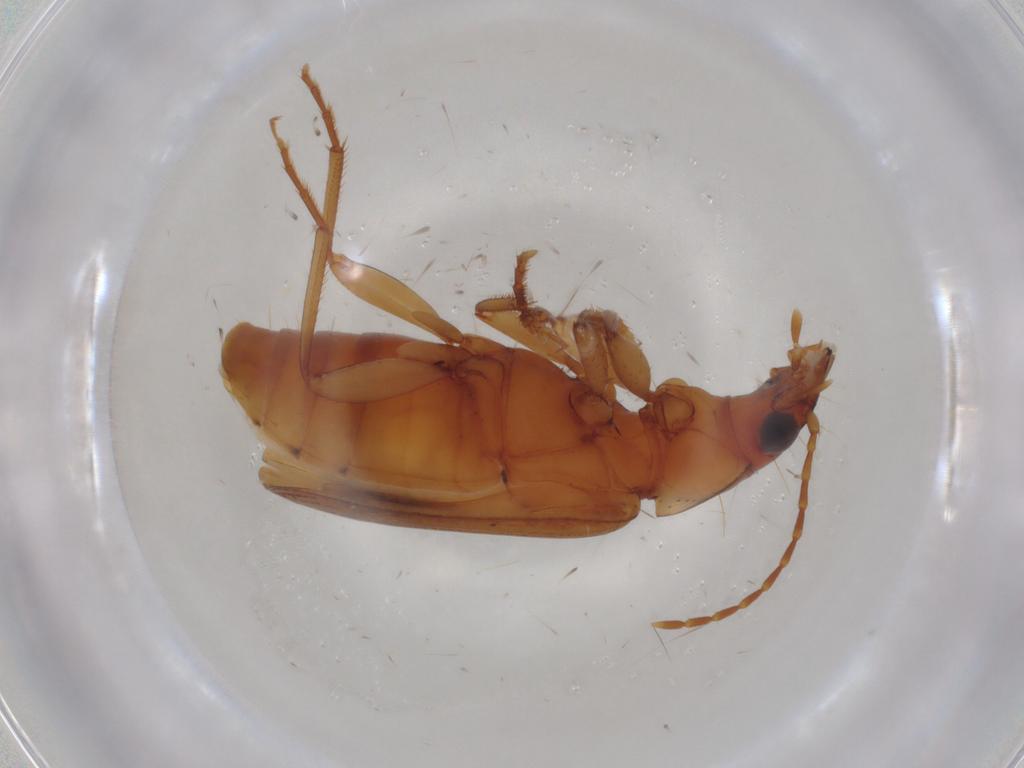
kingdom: Animalia
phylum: Arthropoda
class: Insecta
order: Coleoptera
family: Carabidae
